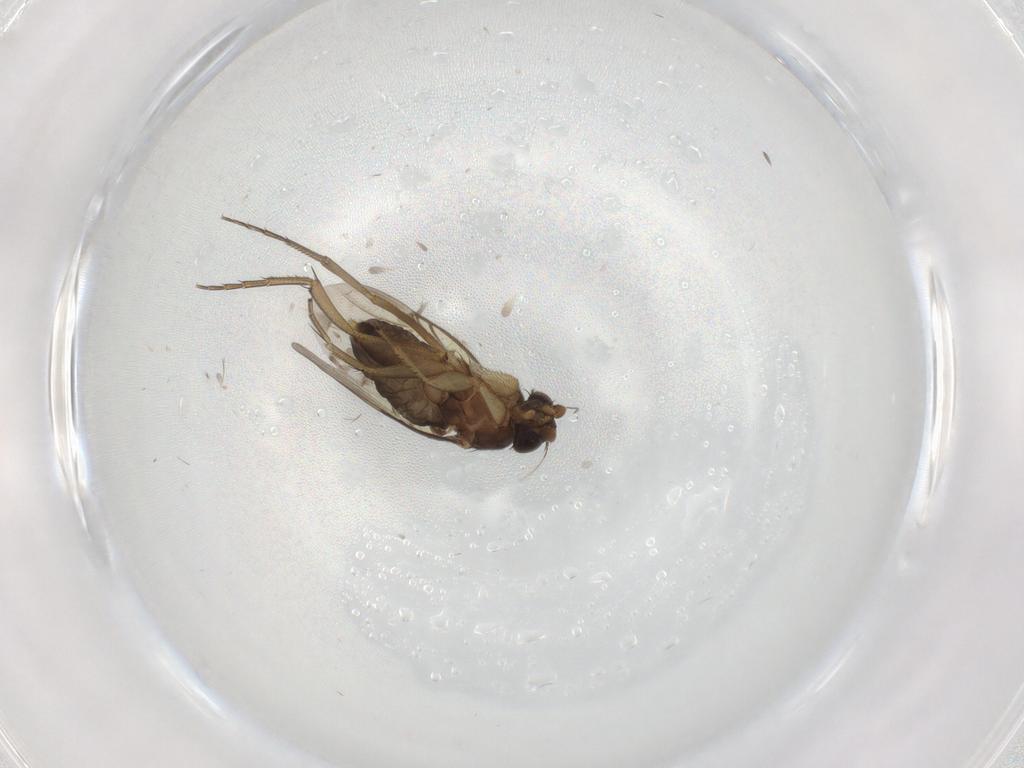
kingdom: Animalia
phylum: Arthropoda
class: Insecta
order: Diptera
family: Phoridae
